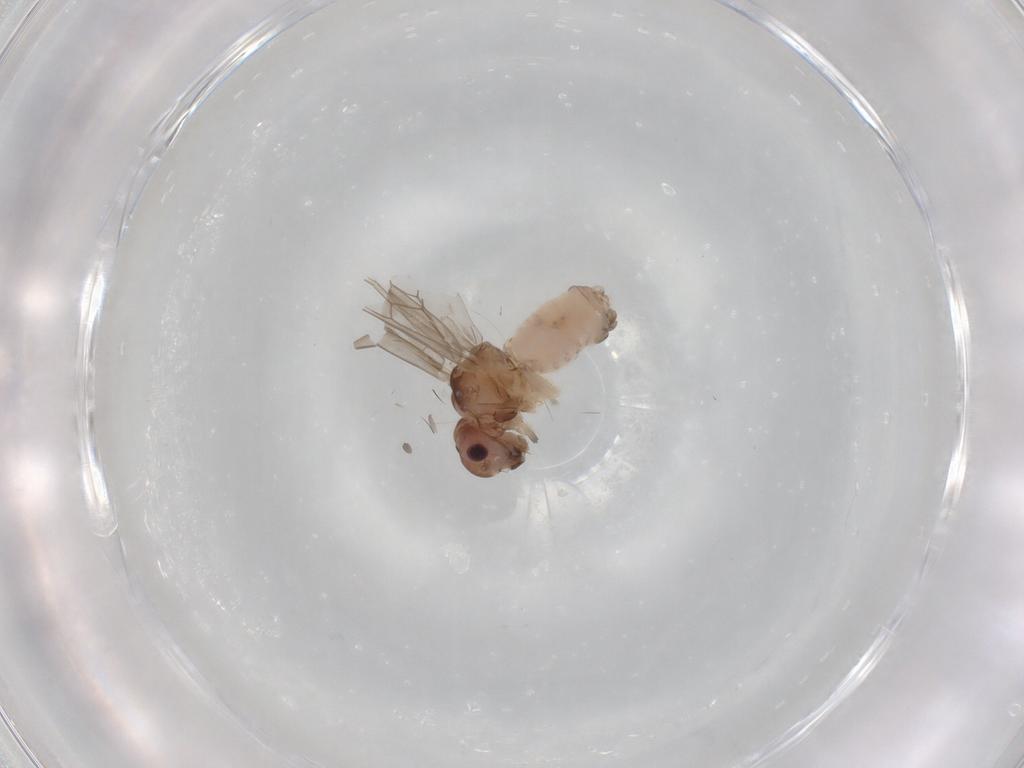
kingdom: Animalia
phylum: Arthropoda
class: Insecta
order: Psocodea
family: Peripsocidae
